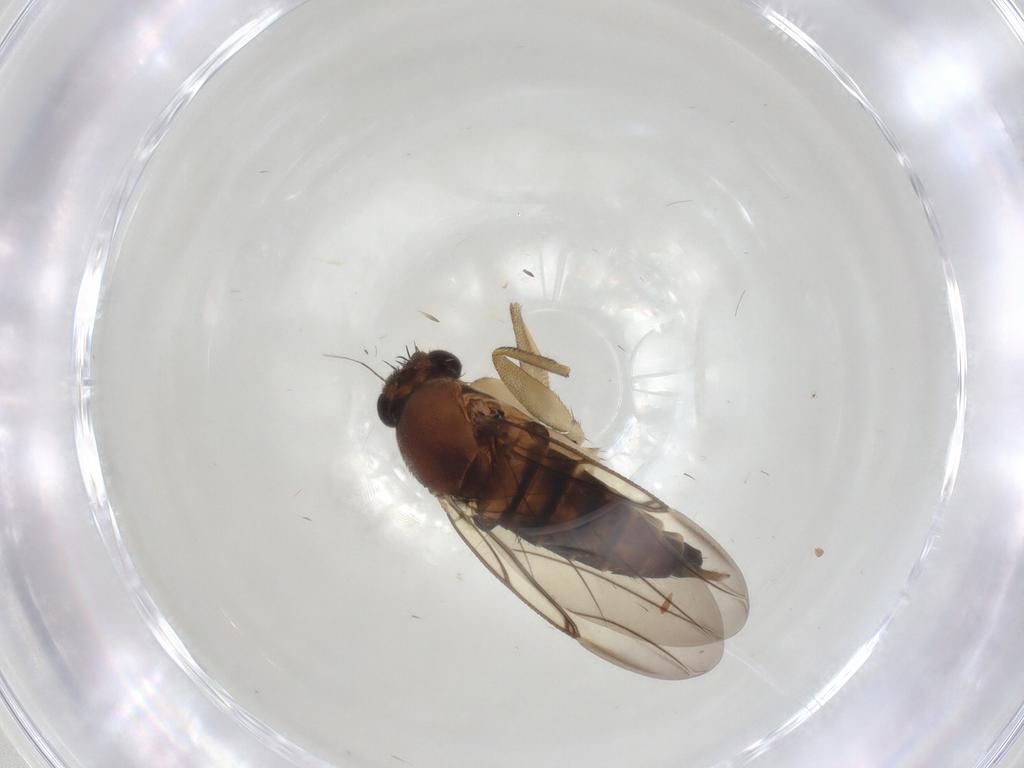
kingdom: Animalia
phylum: Arthropoda
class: Insecta
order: Diptera
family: Phoridae
